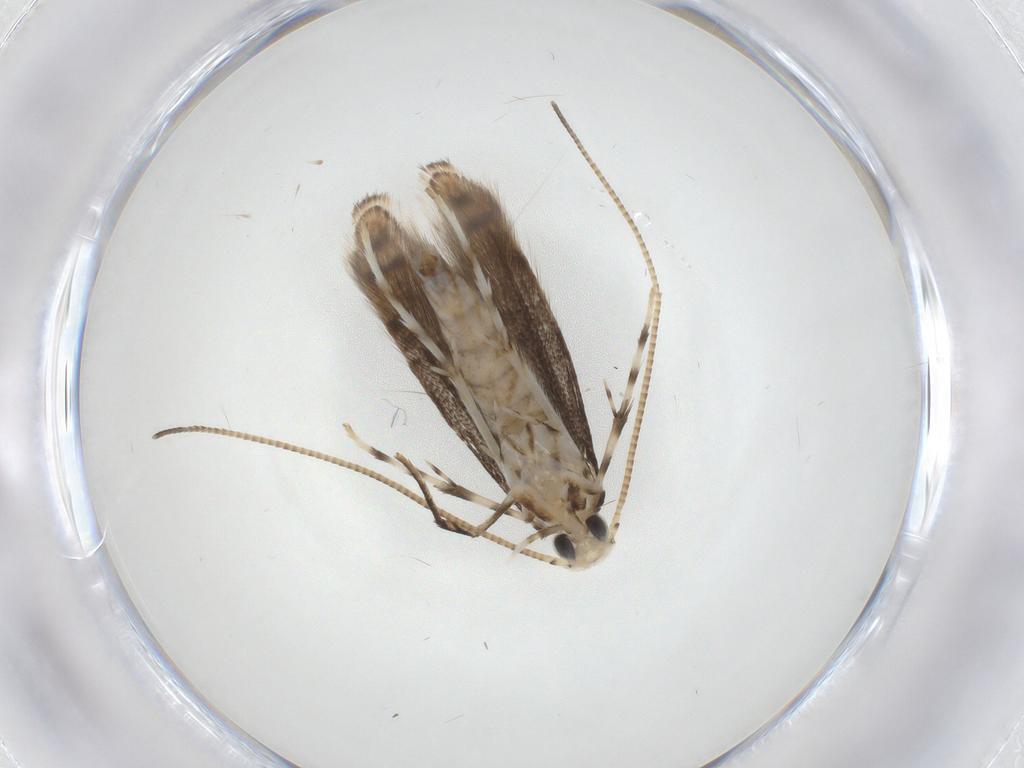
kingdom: Animalia
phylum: Arthropoda
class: Insecta
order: Lepidoptera
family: Gracillariidae
